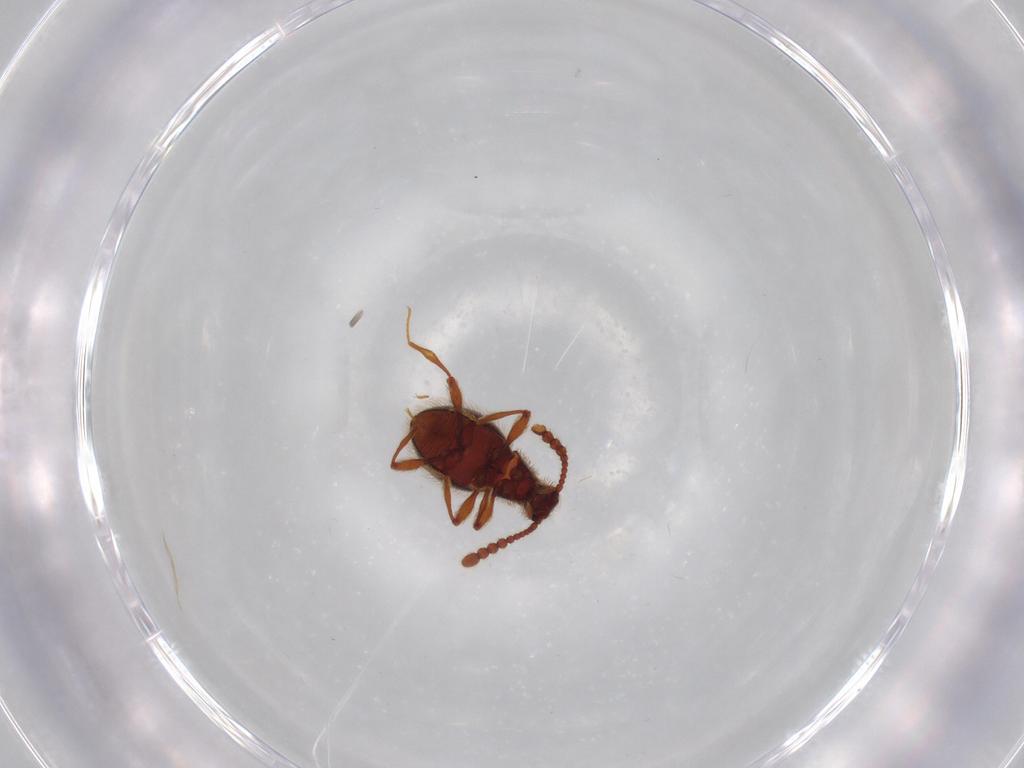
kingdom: Animalia
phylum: Arthropoda
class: Insecta
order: Coleoptera
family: Staphylinidae
